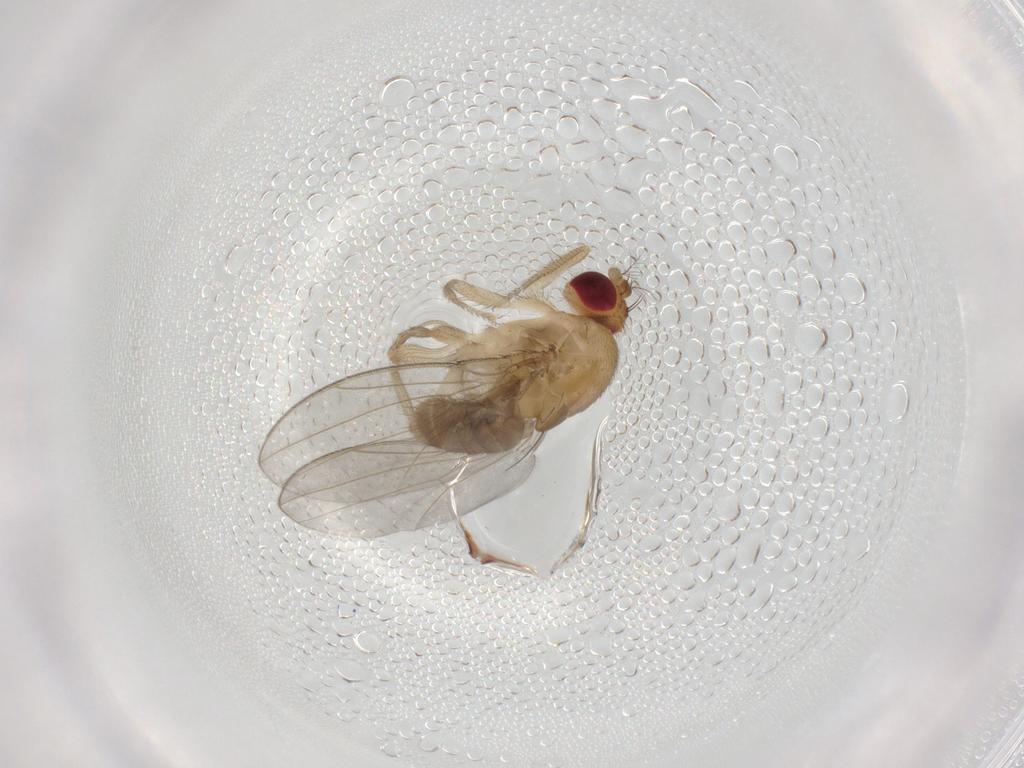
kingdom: Animalia
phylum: Arthropoda
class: Insecta
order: Diptera
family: Drosophilidae
